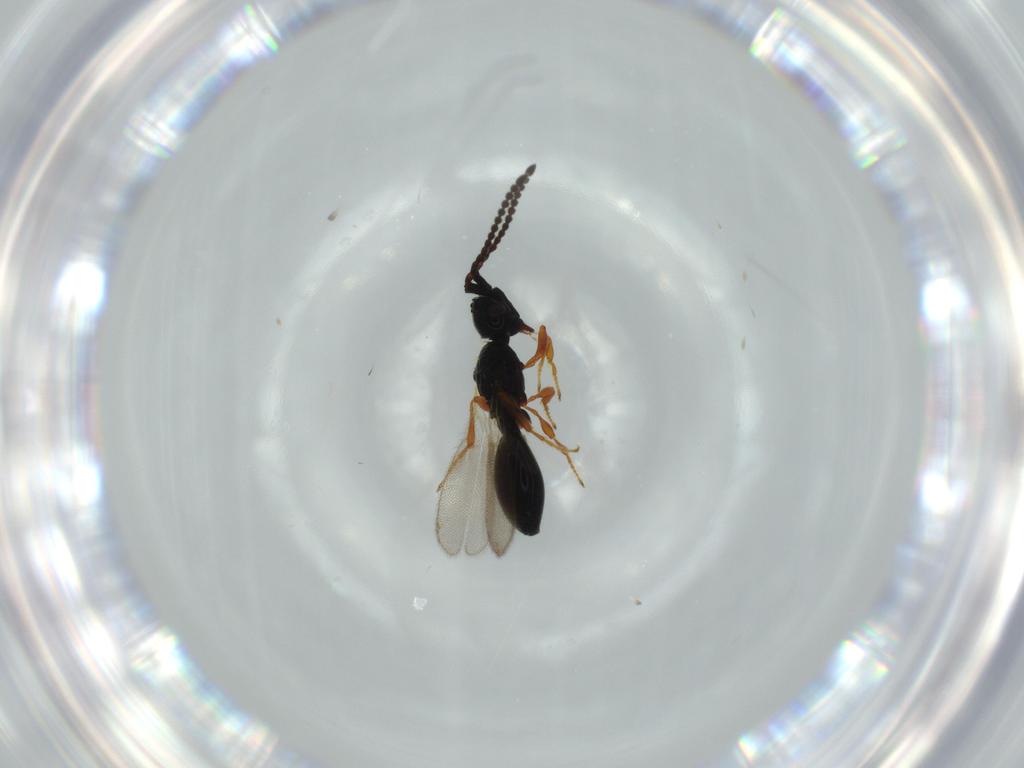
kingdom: Animalia
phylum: Arthropoda
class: Insecta
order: Hymenoptera
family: Diapriidae
